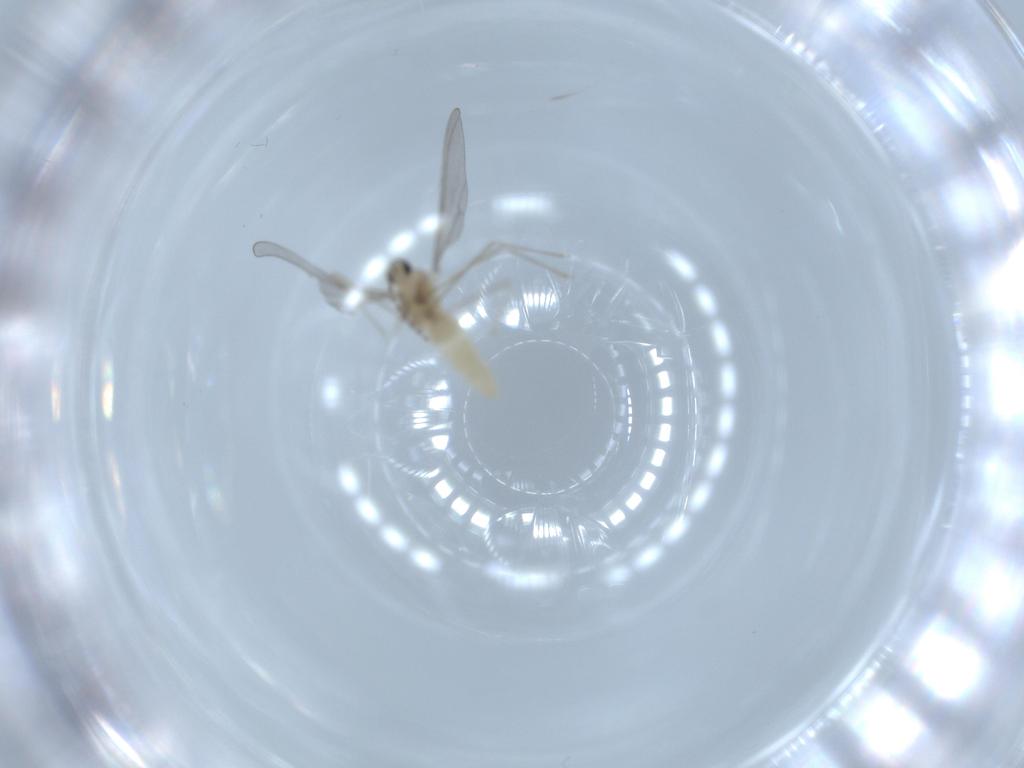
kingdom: Animalia
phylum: Arthropoda
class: Insecta
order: Diptera
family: Cecidomyiidae
